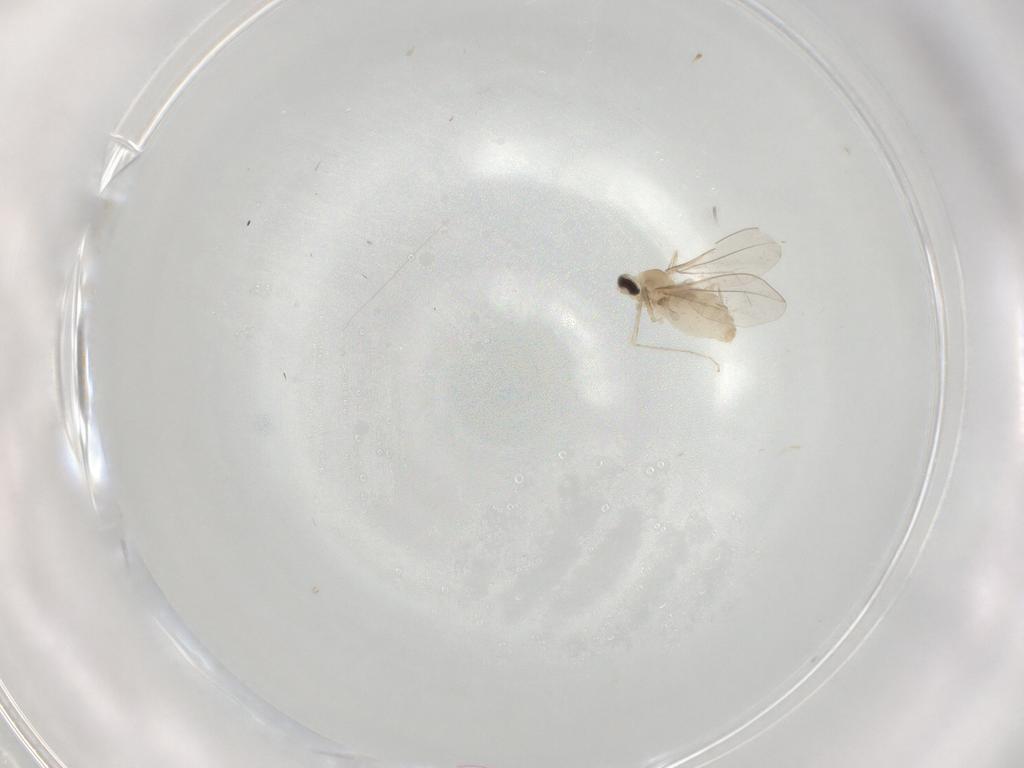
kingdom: Animalia
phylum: Arthropoda
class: Insecta
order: Diptera
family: Cecidomyiidae
